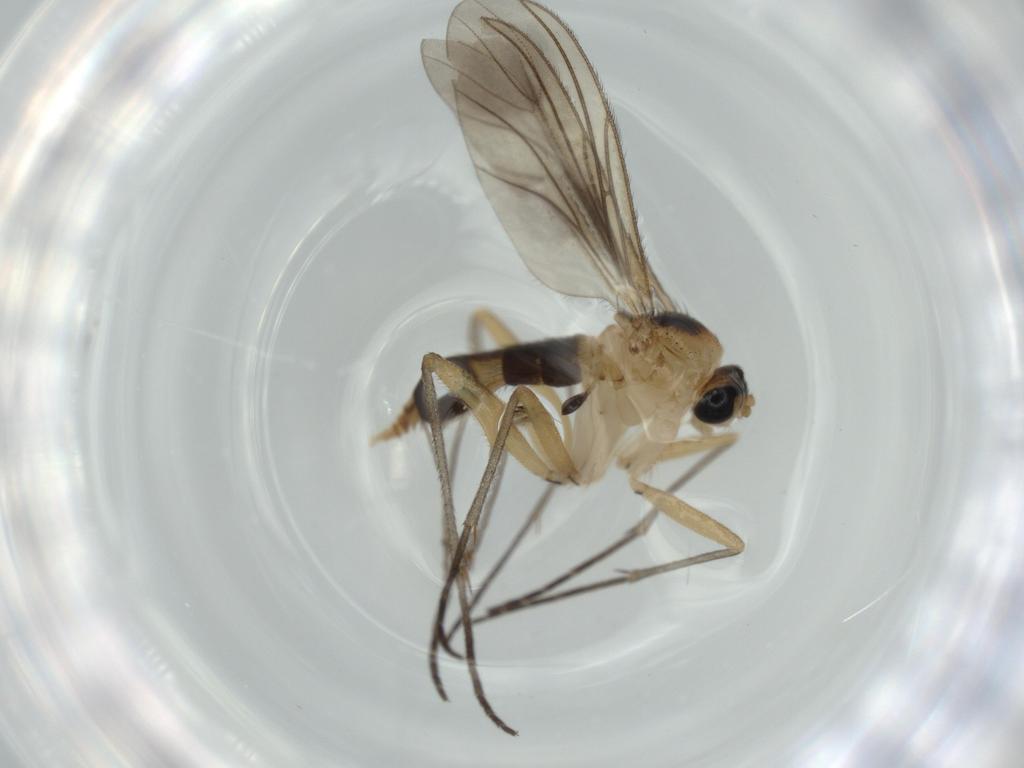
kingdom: Animalia
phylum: Arthropoda
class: Insecta
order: Diptera
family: Sciaridae
